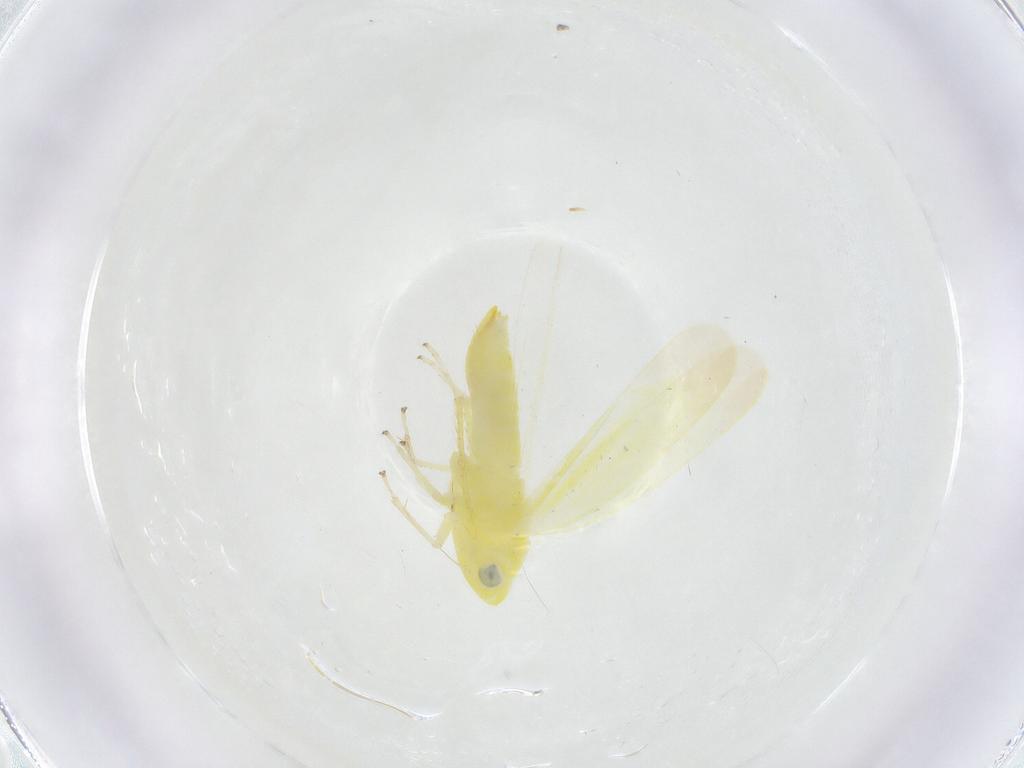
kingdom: Animalia
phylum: Arthropoda
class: Insecta
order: Hemiptera
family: Cicadellidae
